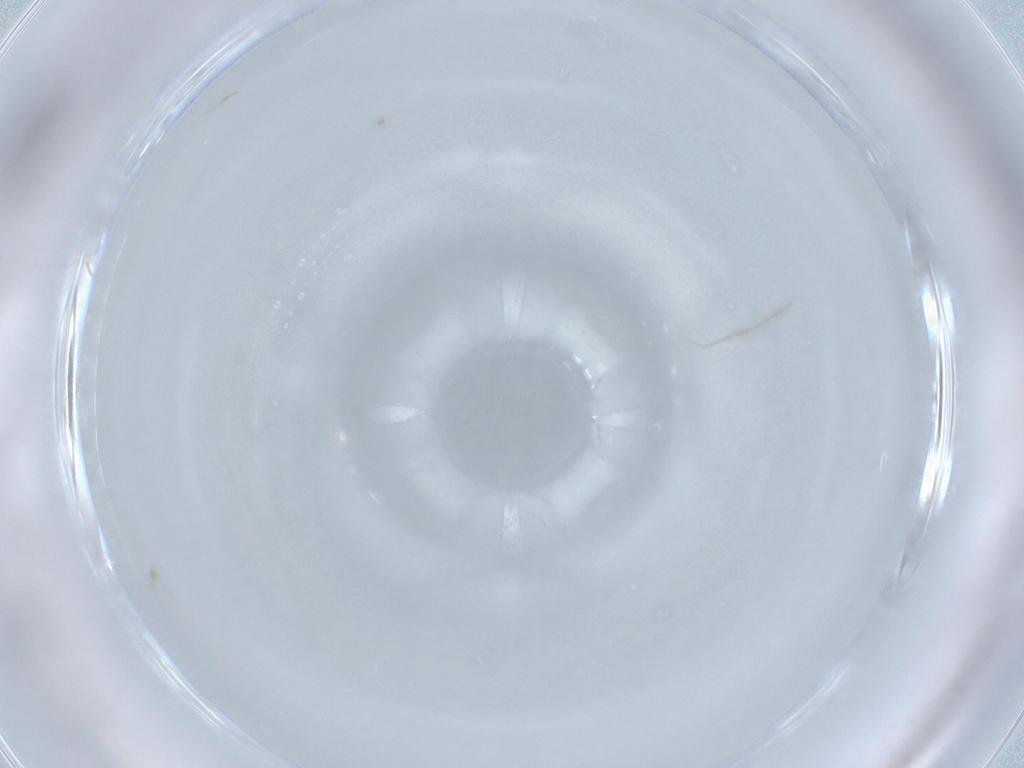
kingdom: Animalia
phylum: Arthropoda
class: Insecta
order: Diptera
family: Cecidomyiidae
